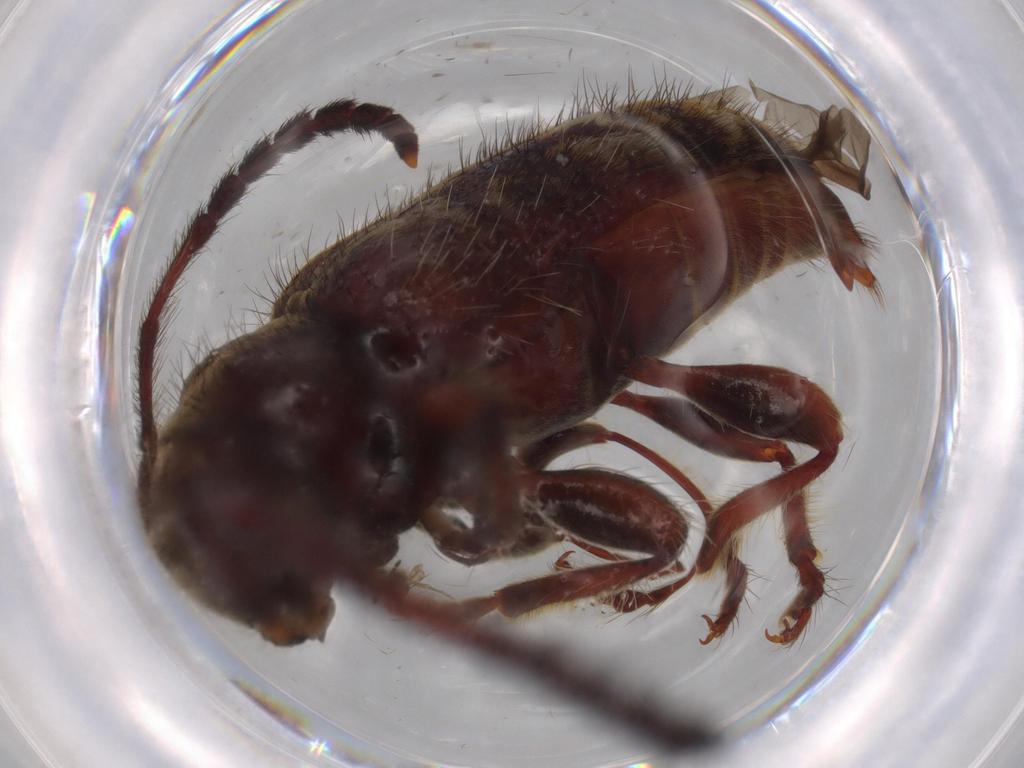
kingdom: Animalia
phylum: Arthropoda
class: Insecta
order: Coleoptera
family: Cerambycidae
